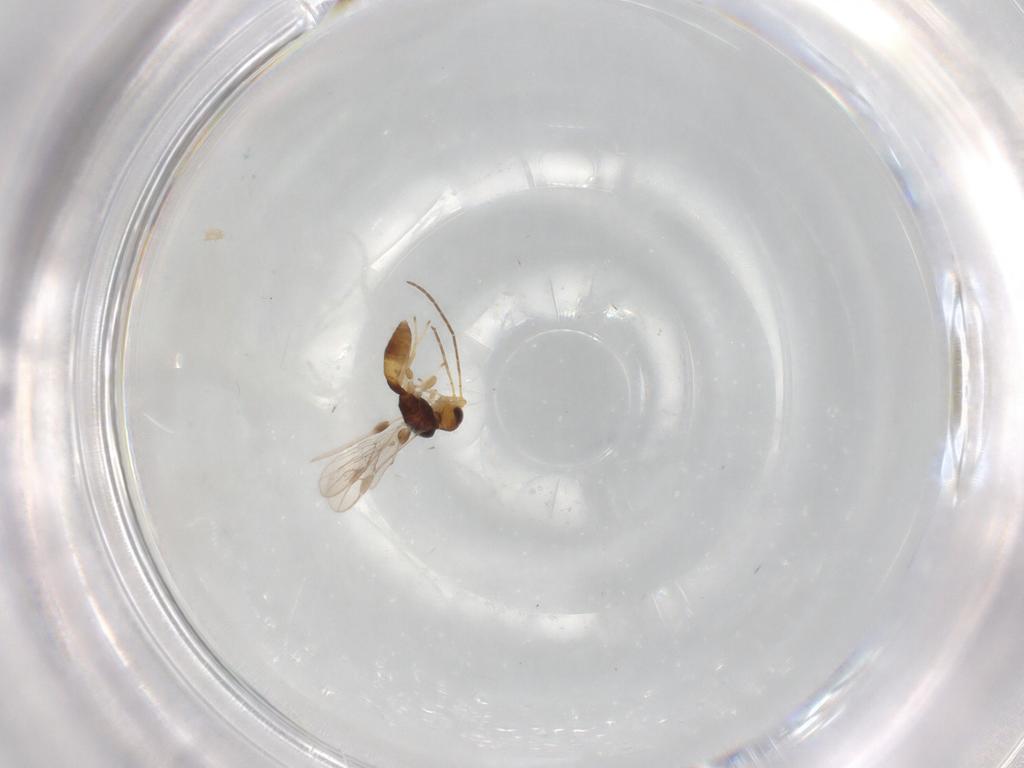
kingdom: Animalia
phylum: Arthropoda
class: Insecta
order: Hymenoptera
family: Braconidae
